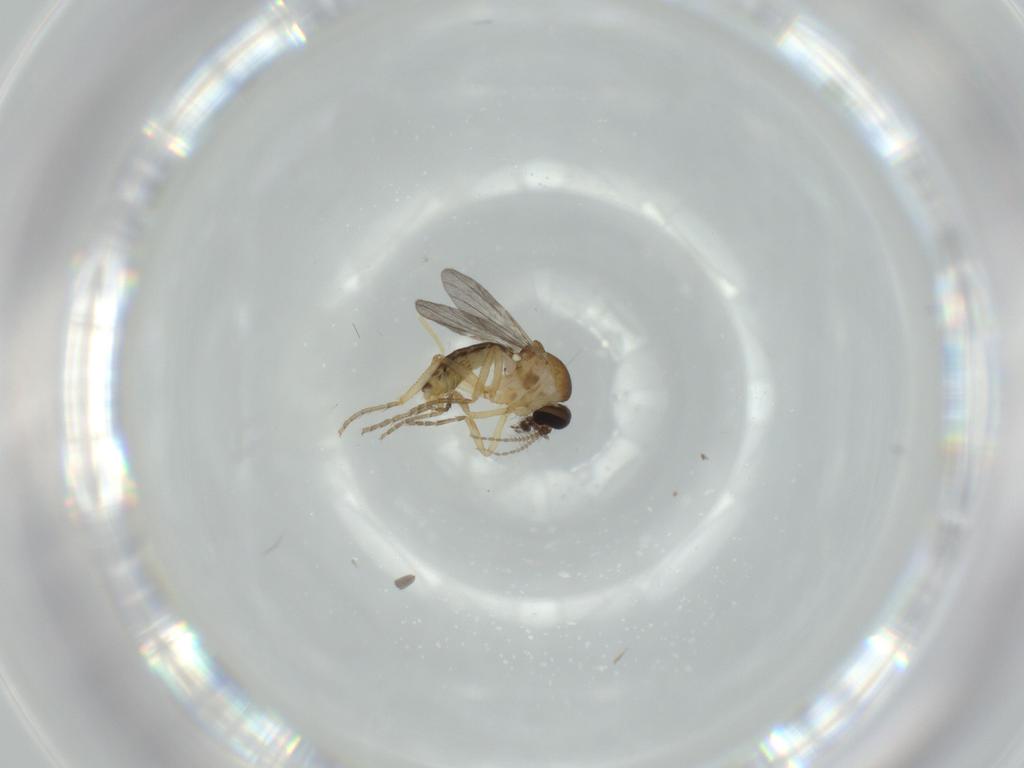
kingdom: Animalia
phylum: Arthropoda
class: Insecta
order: Diptera
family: Ceratopogonidae
